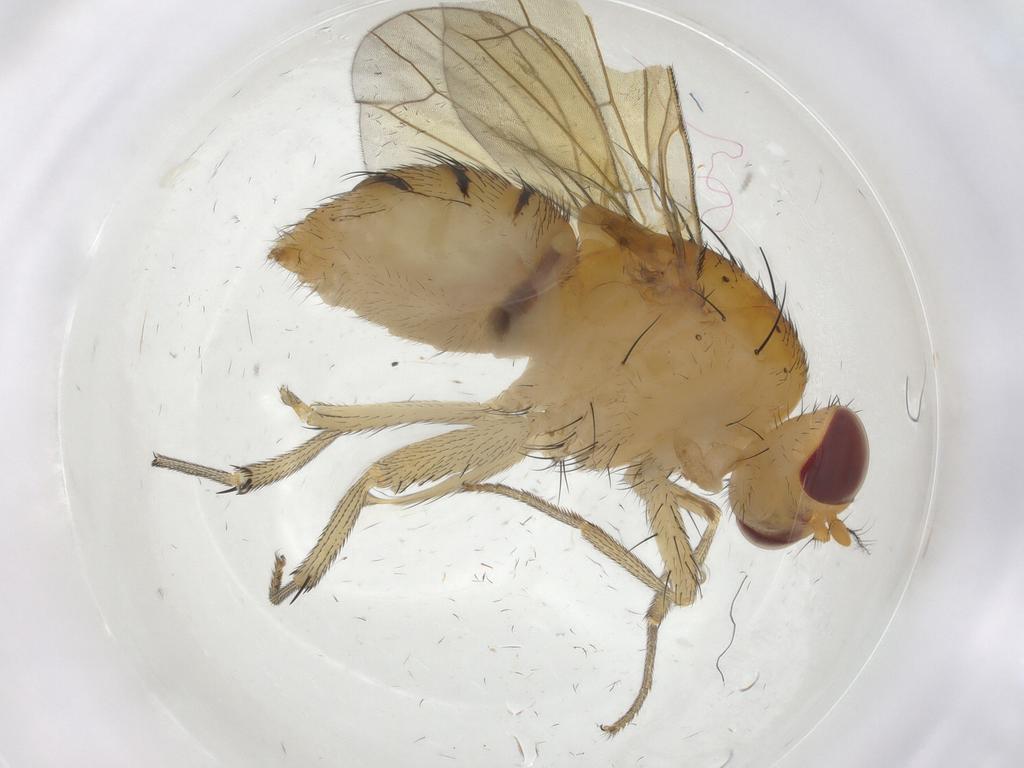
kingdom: Animalia
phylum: Arthropoda
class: Insecta
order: Diptera
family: Chironomidae
